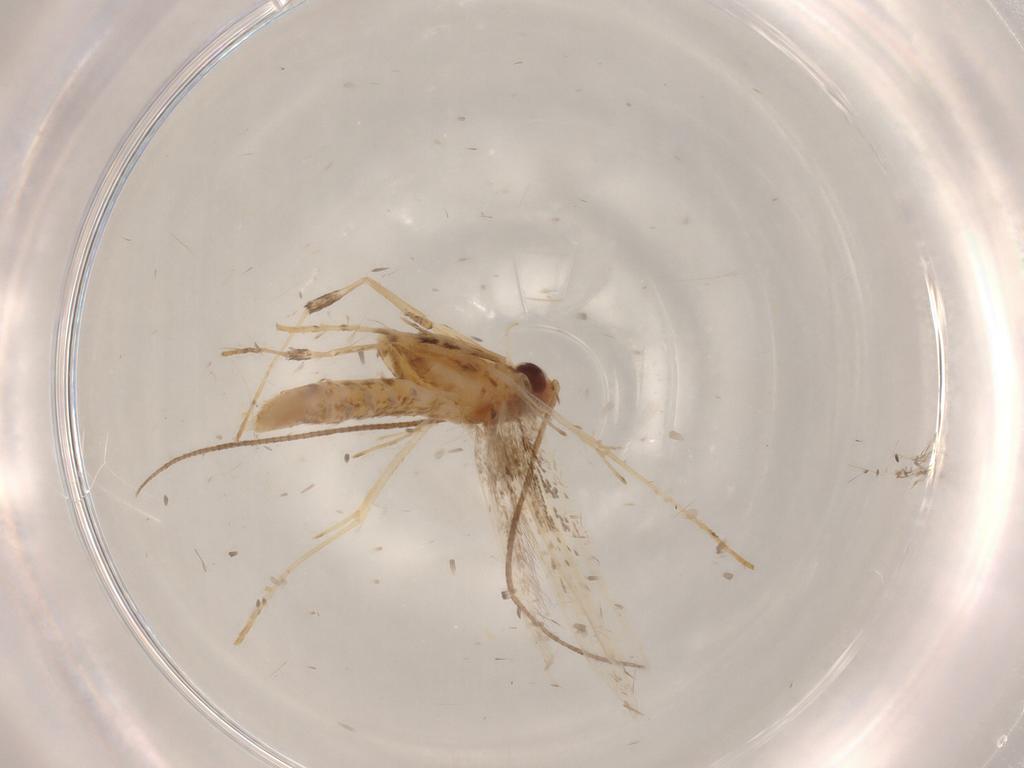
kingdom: Animalia
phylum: Arthropoda
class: Insecta
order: Lepidoptera
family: Gracillariidae
